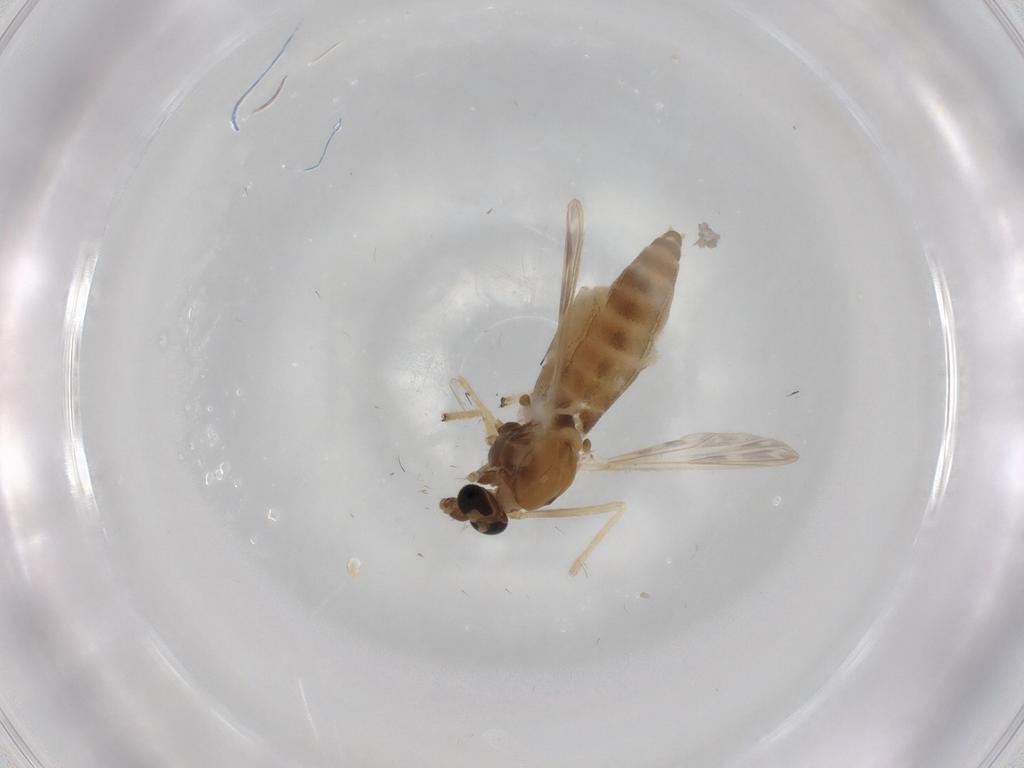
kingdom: Animalia
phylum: Arthropoda
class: Insecta
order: Diptera
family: Chironomidae
